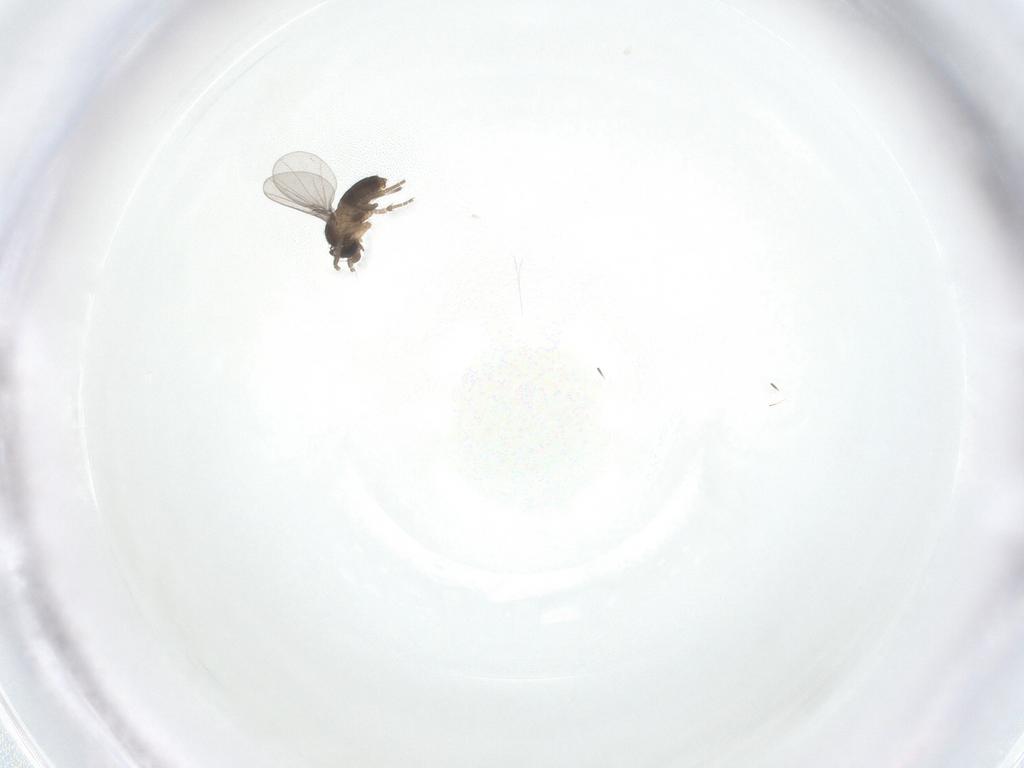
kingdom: Animalia
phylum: Arthropoda
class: Insecta
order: Diptera
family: Phoridae
